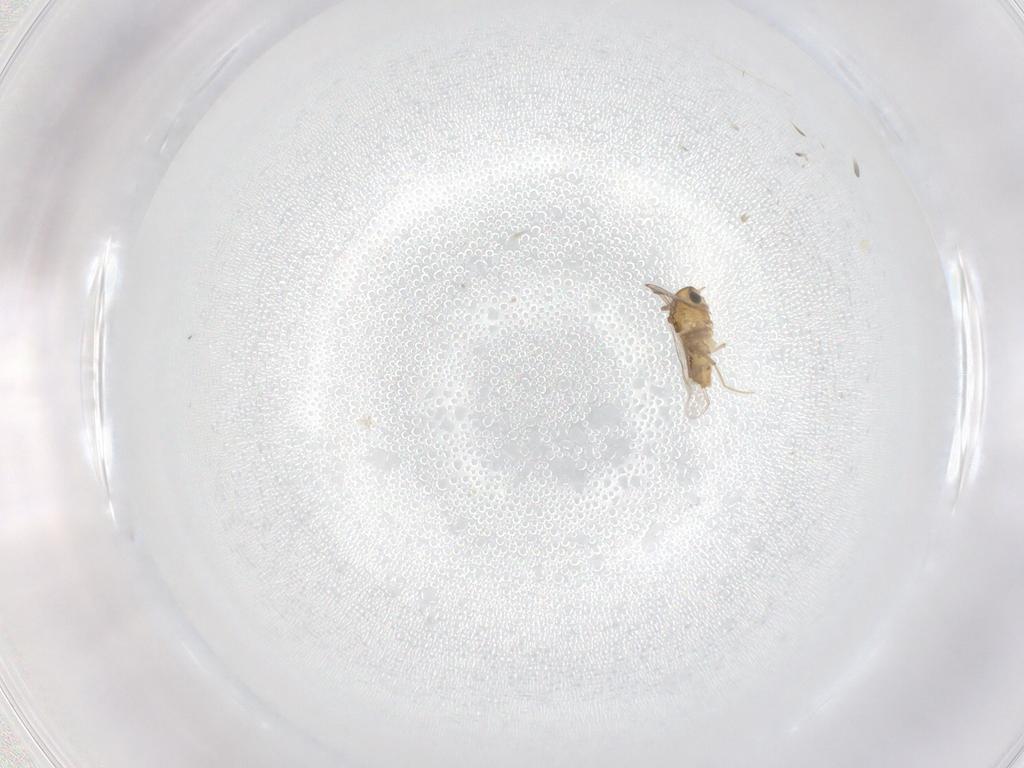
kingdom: Animalia
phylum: Arthropoda
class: Insecta
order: Diptera
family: Chironomidae
